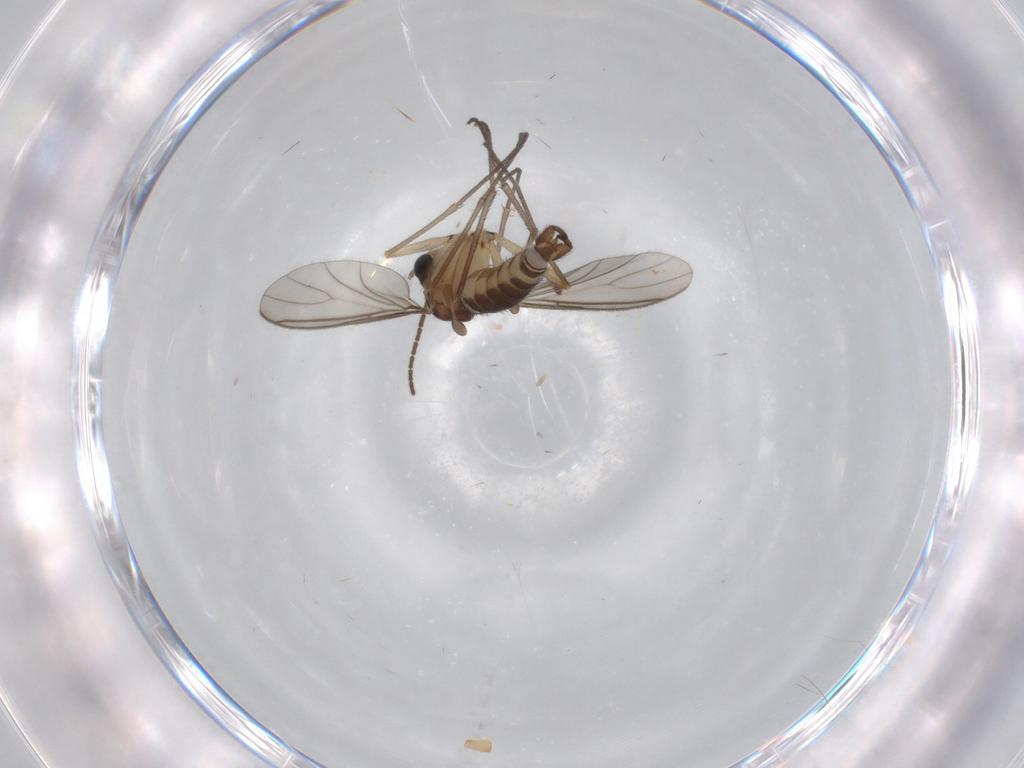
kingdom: Animalia
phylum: Arthropoda
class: Insecta
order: Diptera
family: Sciaridae
